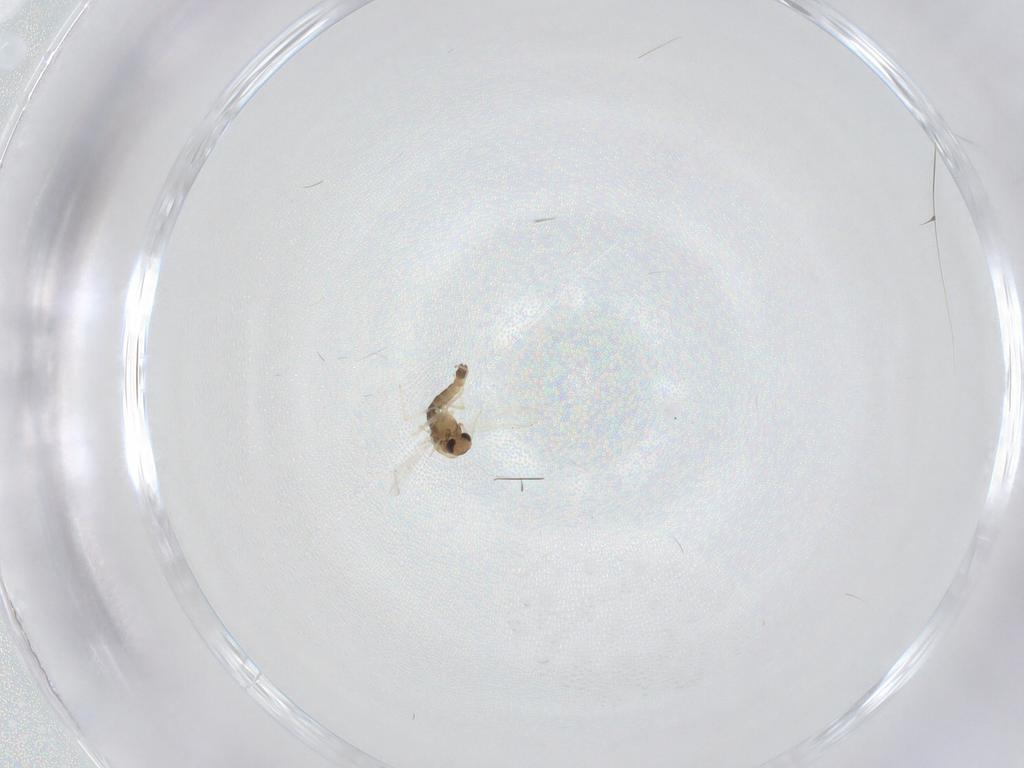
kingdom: Animalia
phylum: Arthropoda
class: Insecta
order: Diptera
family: Chironomidae
